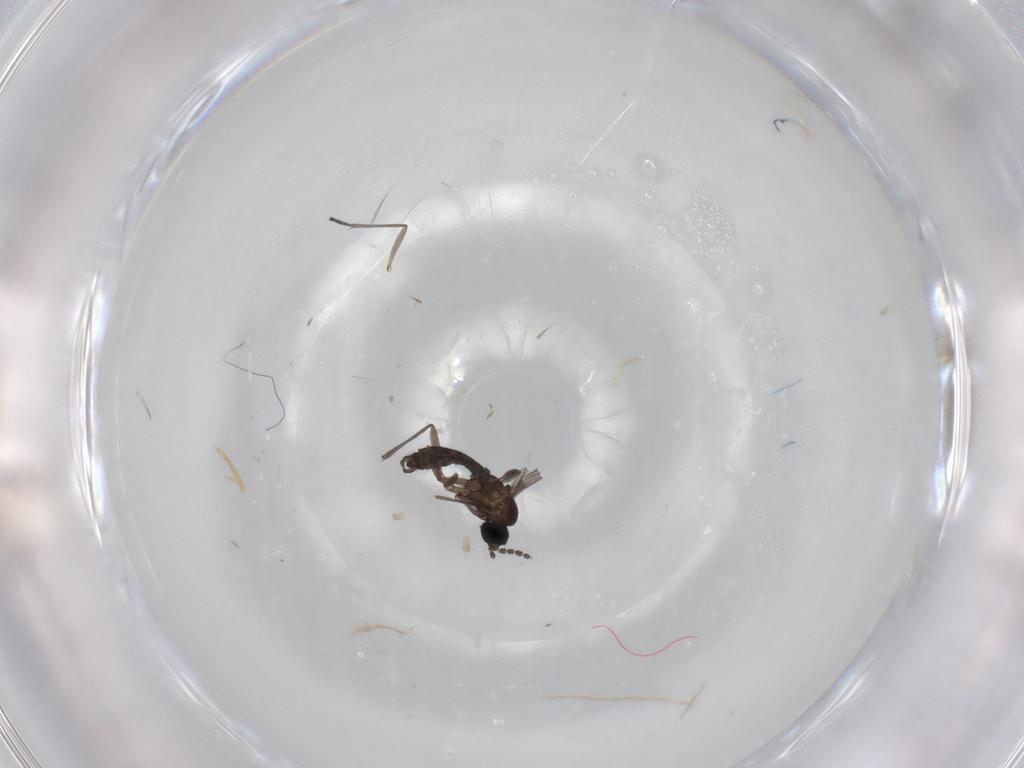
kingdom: Animalia
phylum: Arthropoda
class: Insecta
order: Diptera
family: Sciaridae
